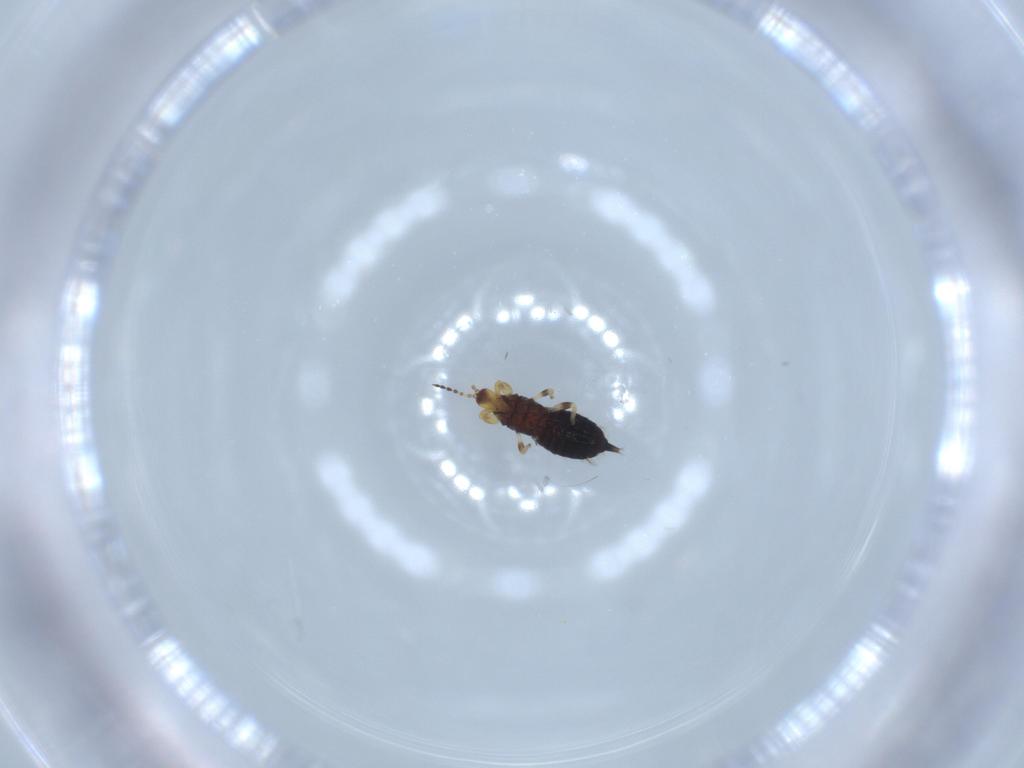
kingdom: Animalia
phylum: Arthropoda
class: Insecta
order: Thysanoptera
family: Phlaeothripidae
